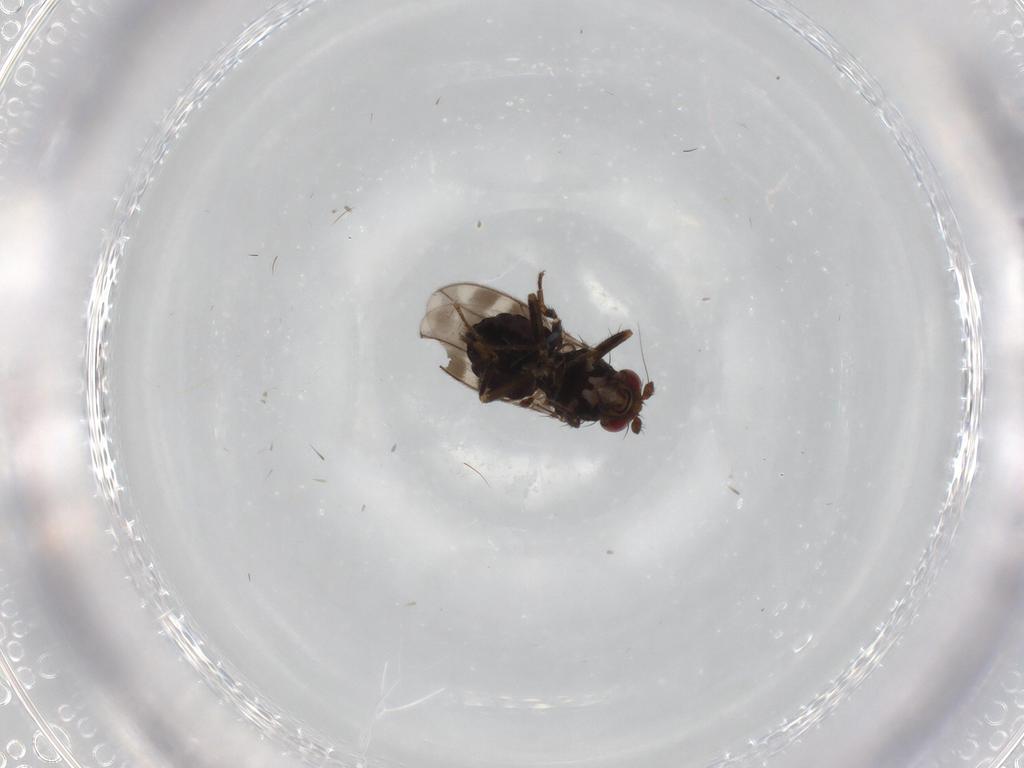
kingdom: Animalia
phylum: Arthropoda
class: Insecta
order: Diptera
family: Sphaeroceridae
